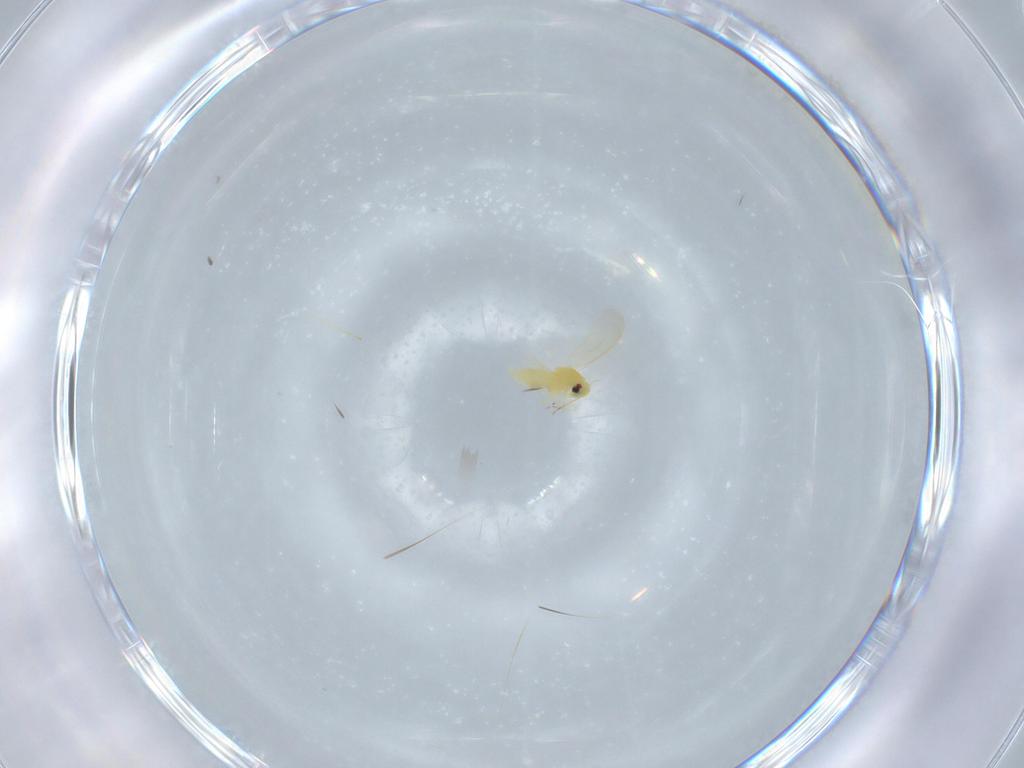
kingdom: Animalia
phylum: Arthropoda
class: Insecta
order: Hemiptera
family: Aleyrodidae
